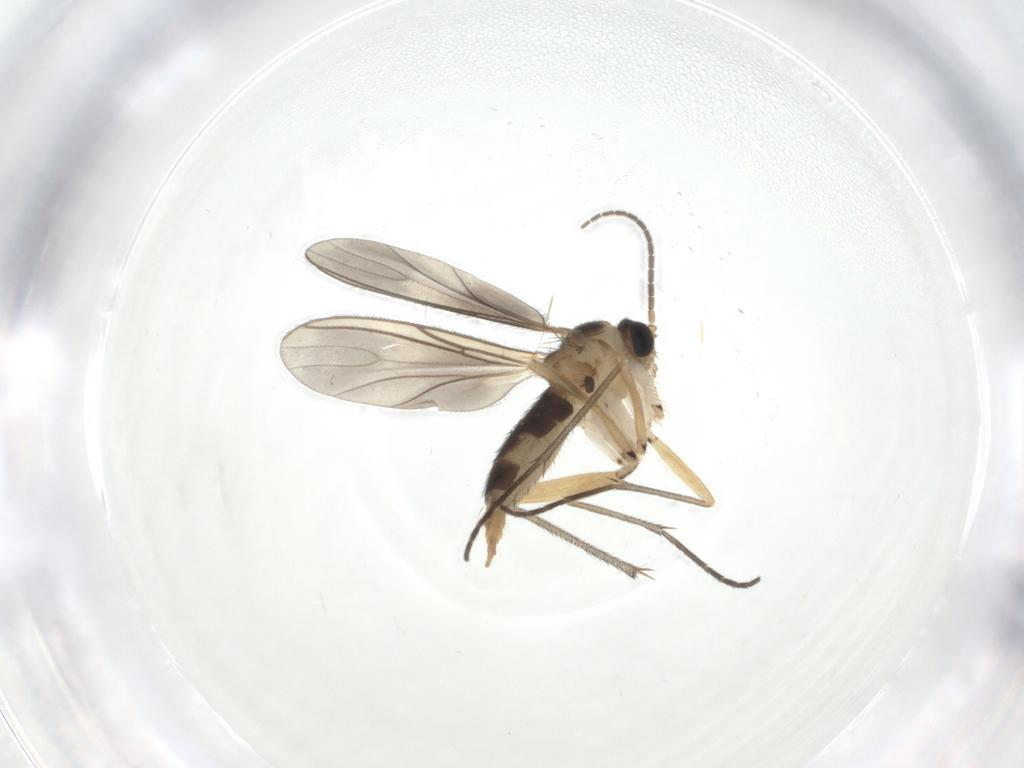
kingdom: Animalia
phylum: Arthropoda
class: Insecta
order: Diptera
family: Sciaridae
